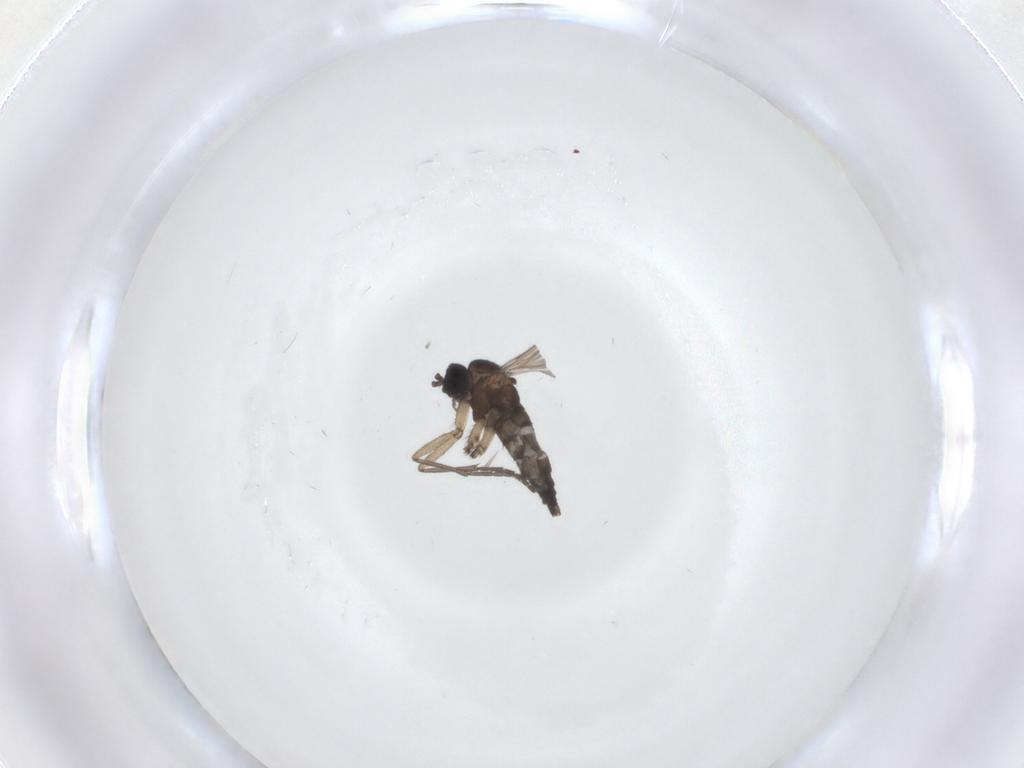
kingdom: Animalia
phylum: Arthropoda
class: Insecta
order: Diptera
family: Sciaridae
